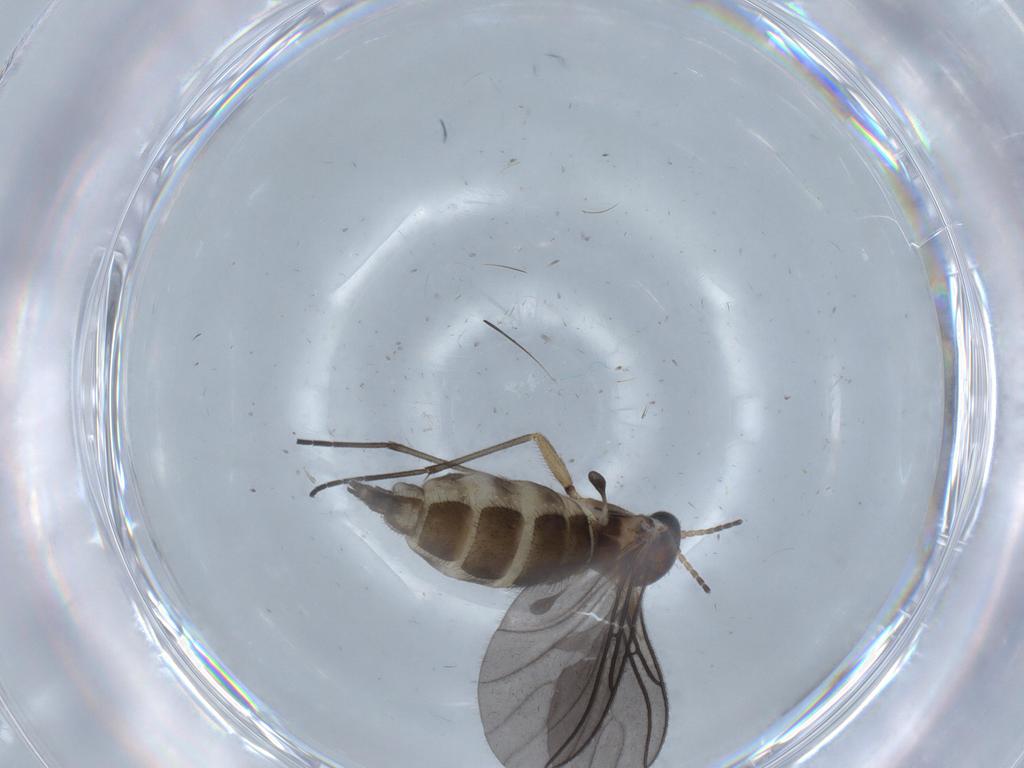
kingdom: Animalia
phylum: Arthropoda
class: Insecta
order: Diptera
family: Sciaridae
